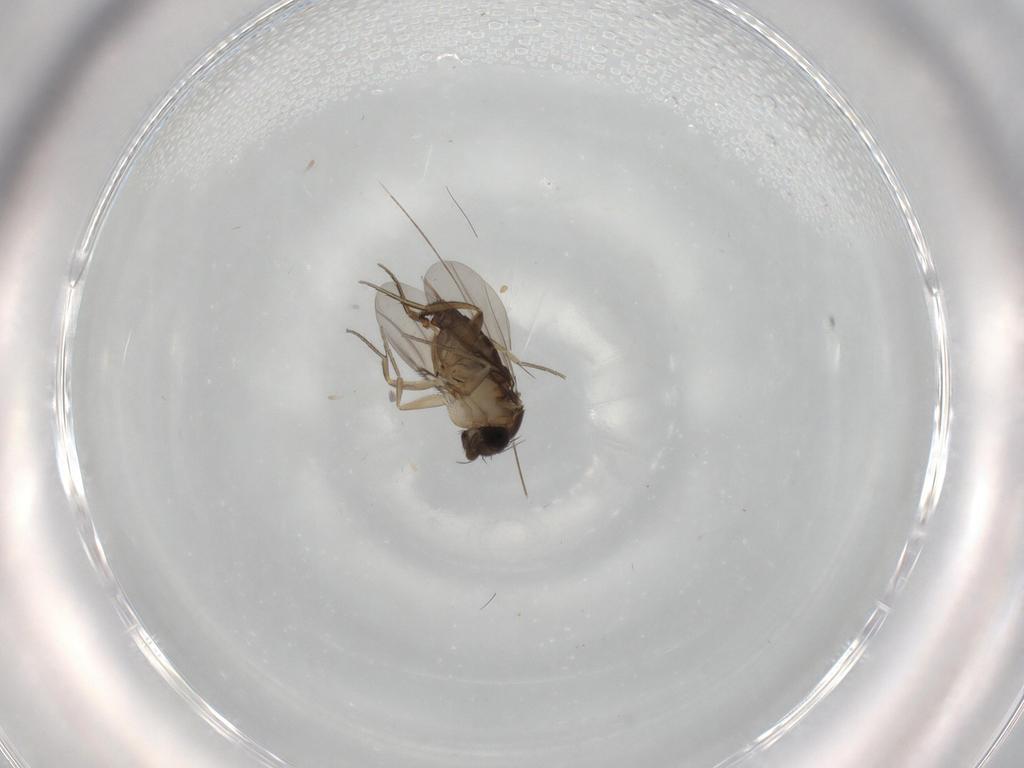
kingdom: Animalia
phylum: Arthropoda
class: Insecta
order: Diptera
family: Phoridae
